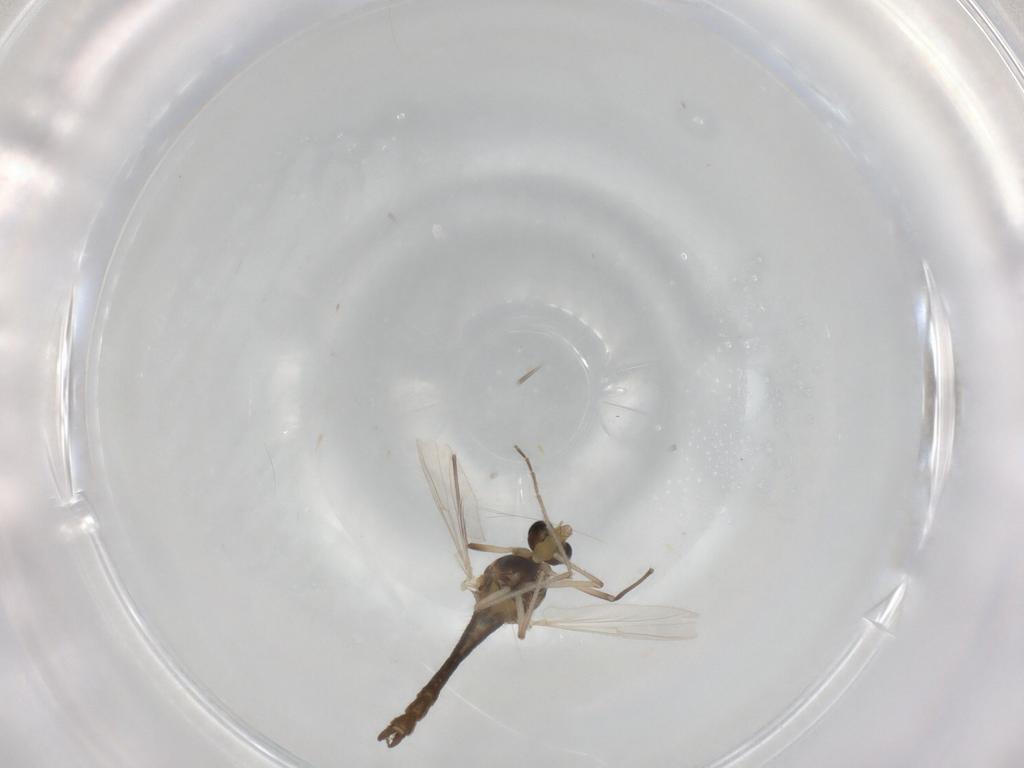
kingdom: Animalia
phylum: Arthropoda
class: Insecta
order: Diptera
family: Chironomidae
